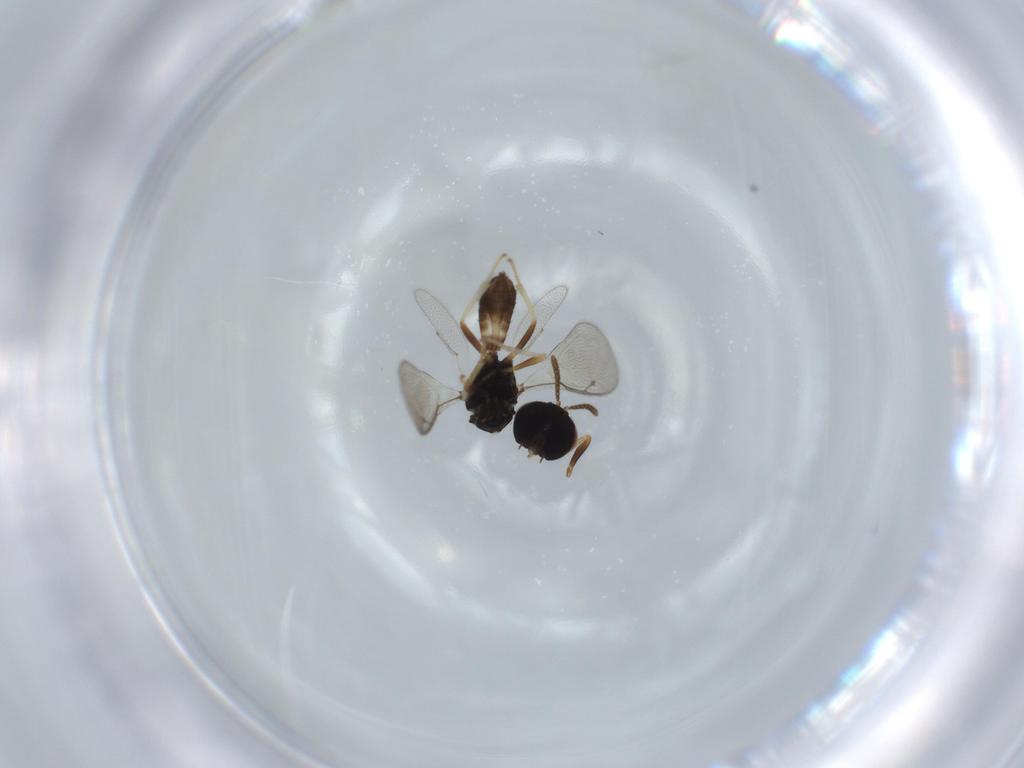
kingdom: Animalia
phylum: Arthropoda
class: Insecta
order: Hymenoptera
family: Pteromalidae
